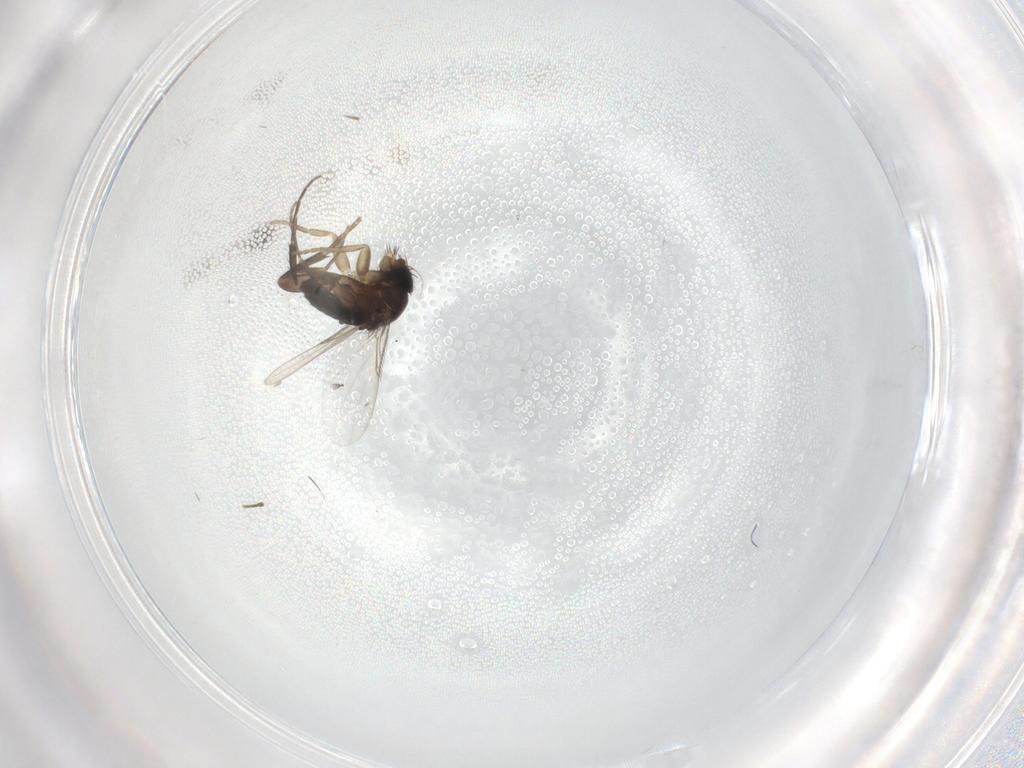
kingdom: Animalia
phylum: Arthropoda
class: Insecta
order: Diptera
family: Phoridae
